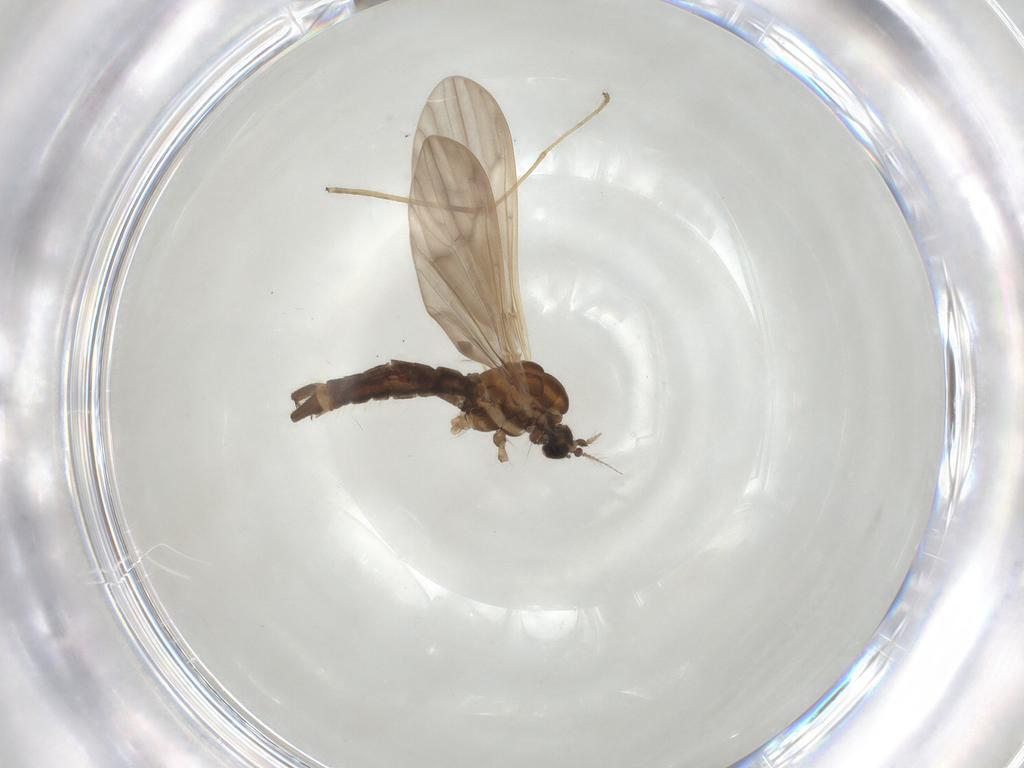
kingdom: Animalia
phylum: Arthropoda
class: Insecta
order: Diptera
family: Limoniidae
